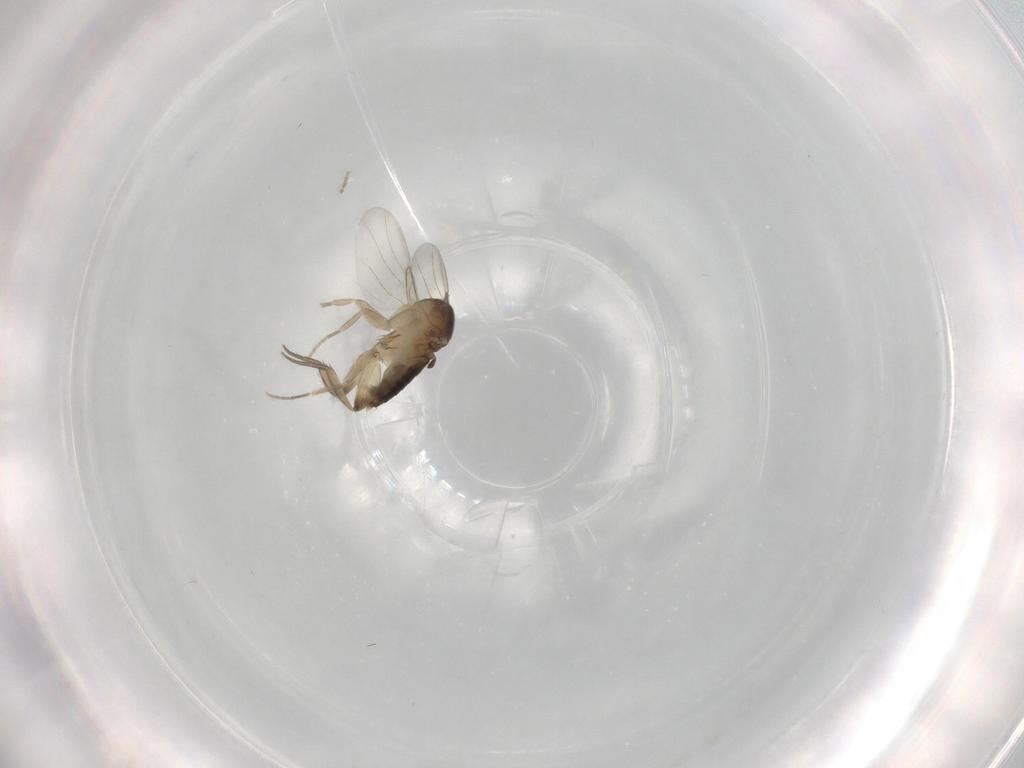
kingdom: Animalia
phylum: Arthropoda
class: Insecta
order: Diptera
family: Phoridae
